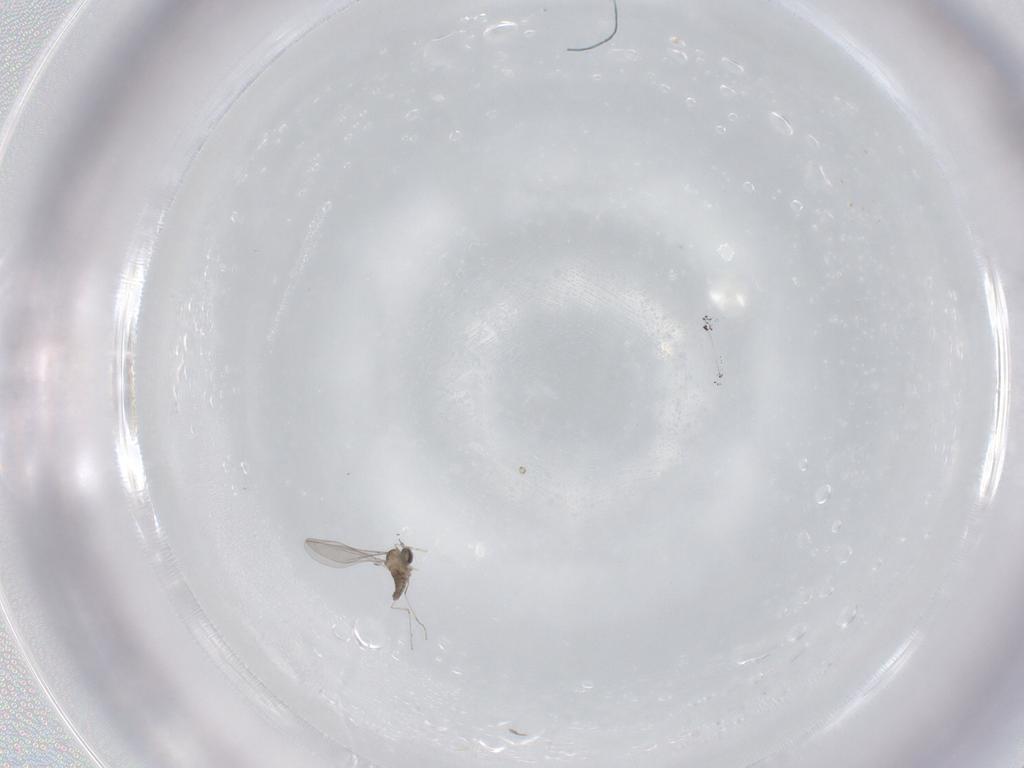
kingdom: Animalia
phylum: Arthropoda
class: Insecta
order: Diptera
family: Cecidomyiidae
